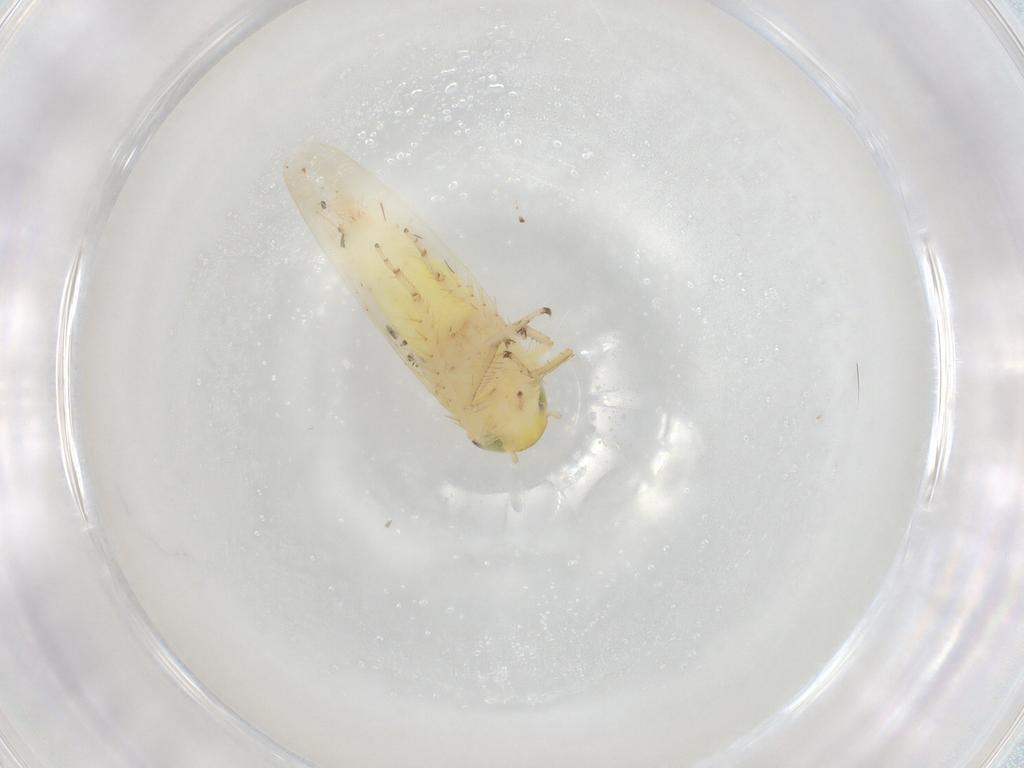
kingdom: Animalia
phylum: Arthropoda
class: Insecta
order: Hemiptera
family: Cicadellidae
